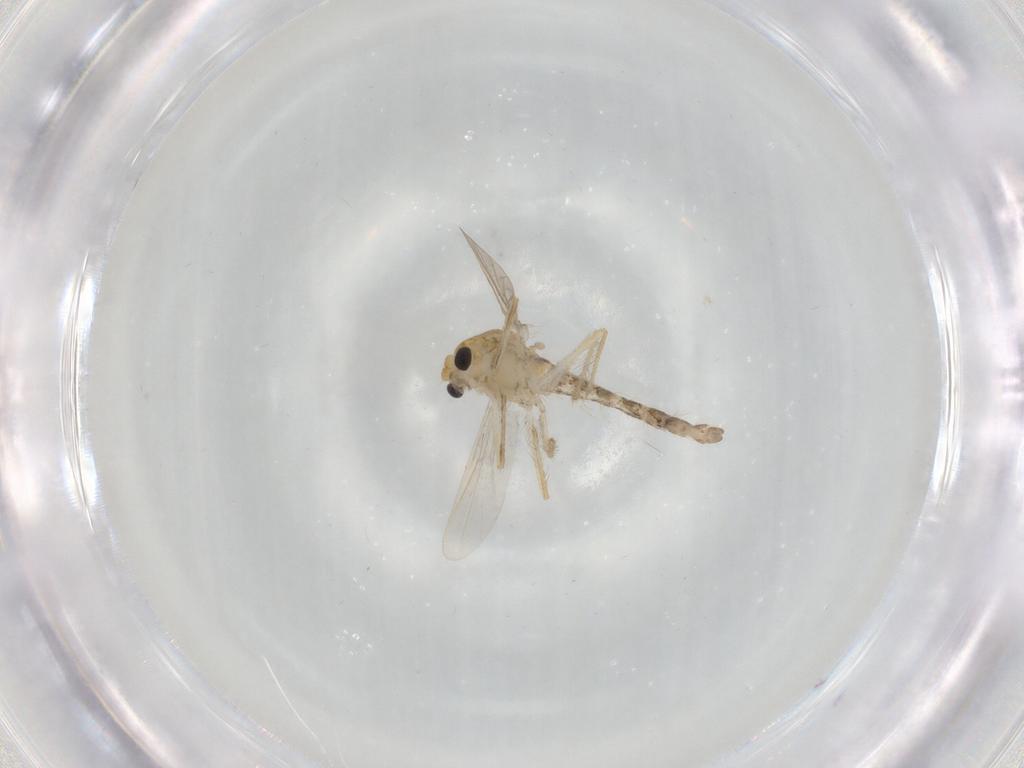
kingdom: Animalia
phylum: Arthropoda
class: Insecta
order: Diptera
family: Chironomidae
